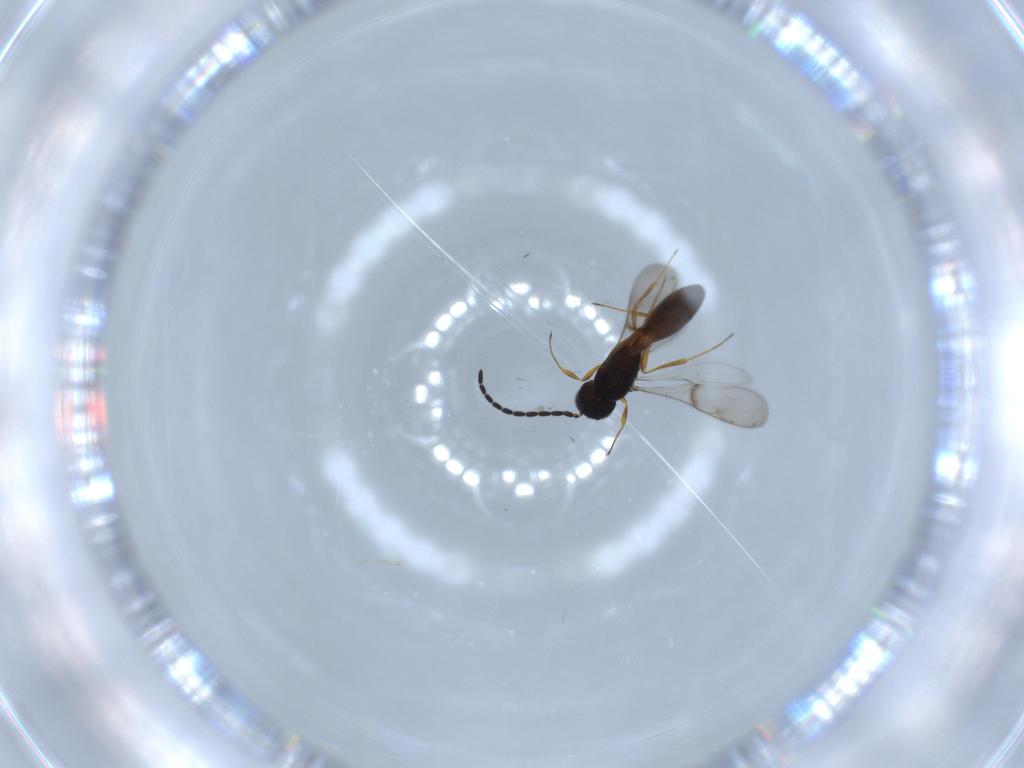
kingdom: Animalia
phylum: Arthropoda
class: Insecta
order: Hymenoptera
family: Scelionidae
